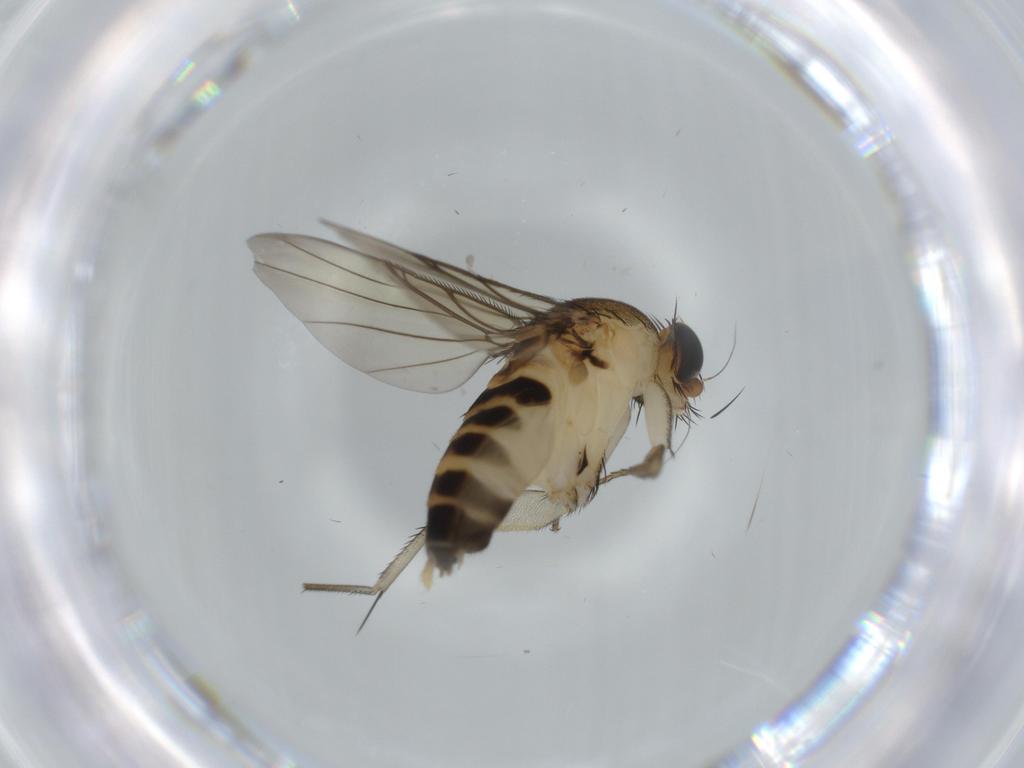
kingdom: Animalia
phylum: Arthropoda
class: Insecta
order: Diptera
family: Phoridae
